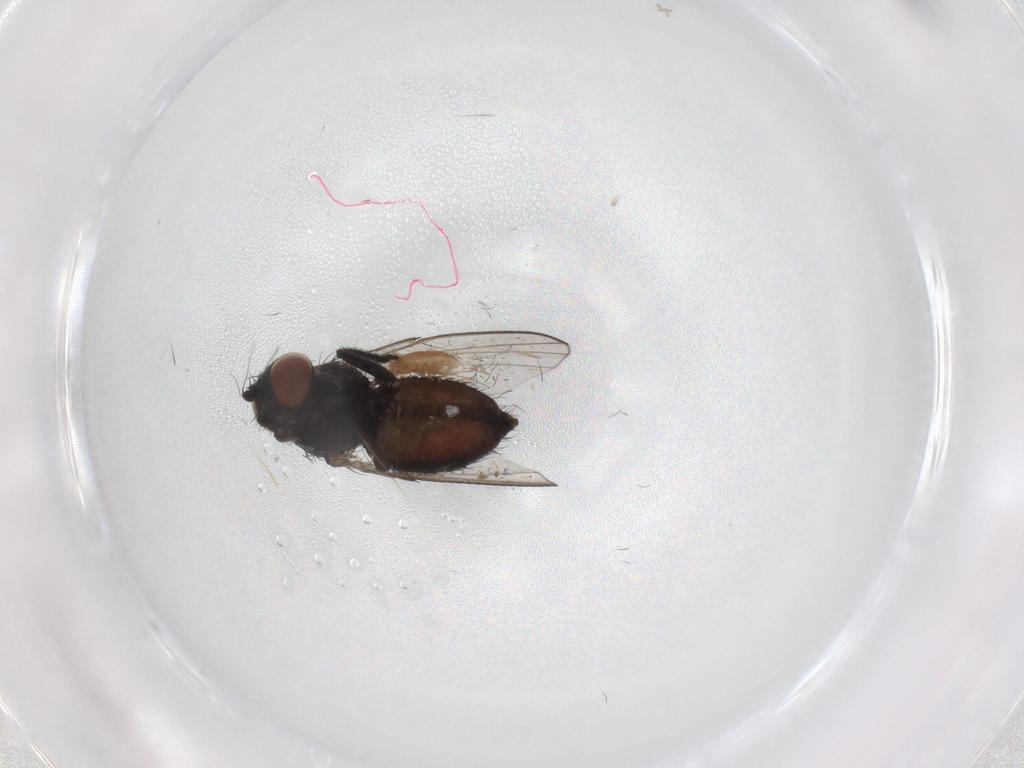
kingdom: Animalia
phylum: Arthropoda
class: Insecta
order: Diptera
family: Milichiidae
